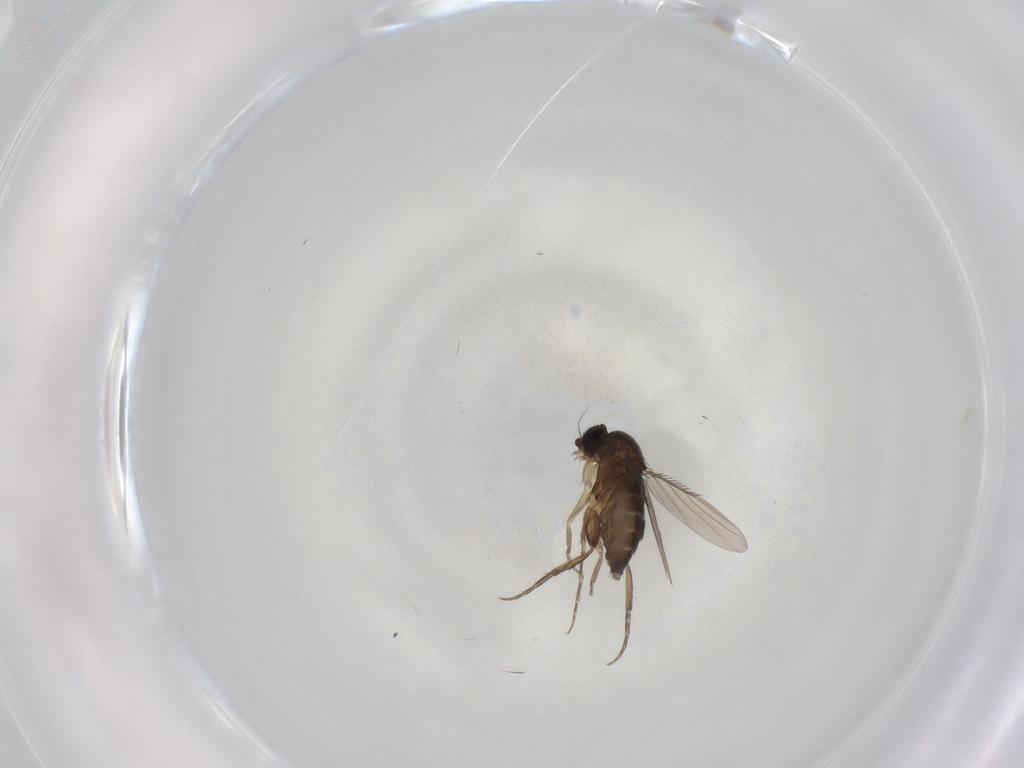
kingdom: Animalia
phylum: Arthropoda
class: Insecta
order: Diptera
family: Phoridae
